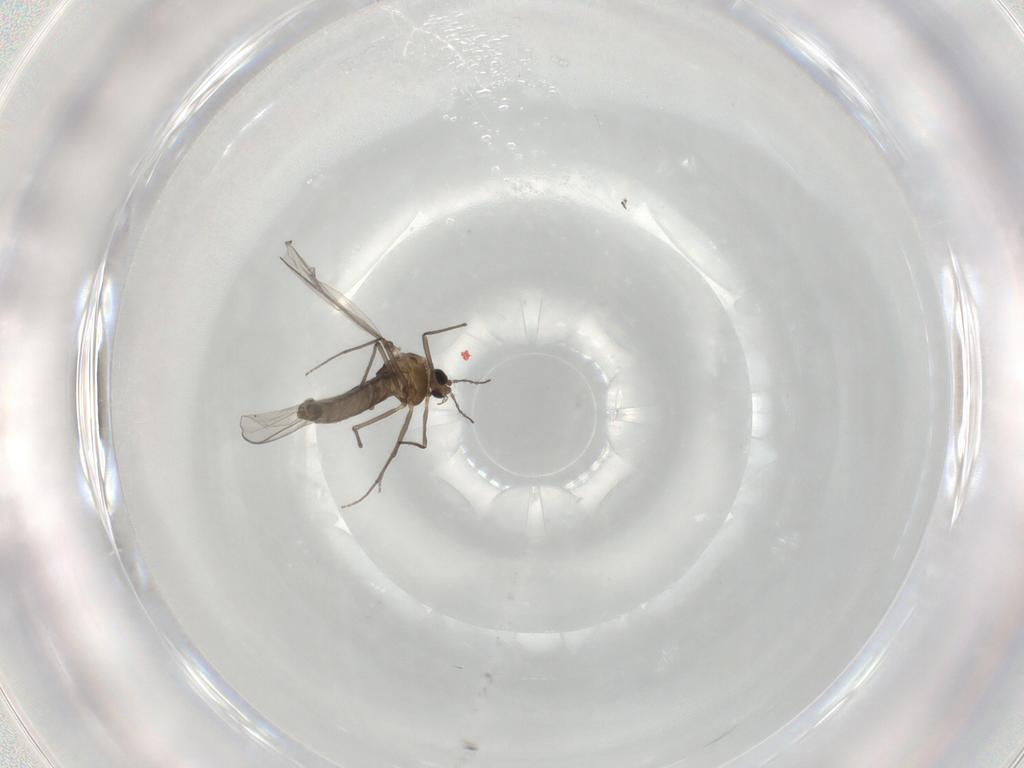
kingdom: Animalia
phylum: Arthropoda
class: Insecta
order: Diptera
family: Chironomidae
